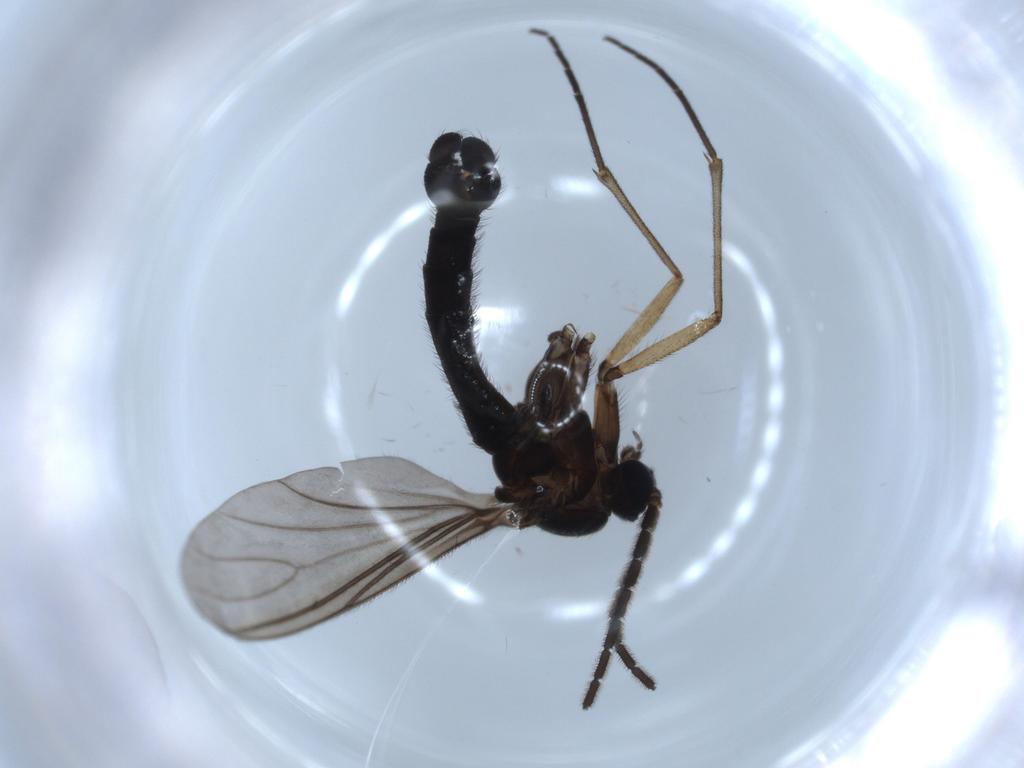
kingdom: Animalia
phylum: Arthropoda
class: Insecta
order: Diptera
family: Sciaridae
